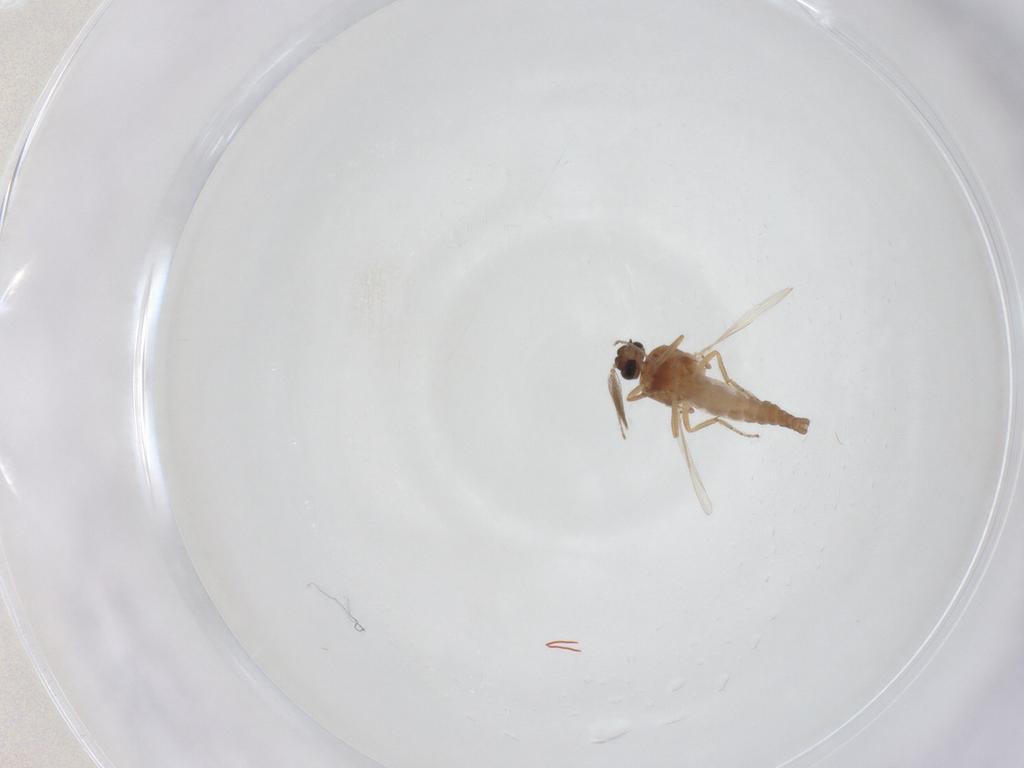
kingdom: Animalia
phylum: Arthropoda
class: Insecta
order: Diptera
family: Ceratopogonidae
